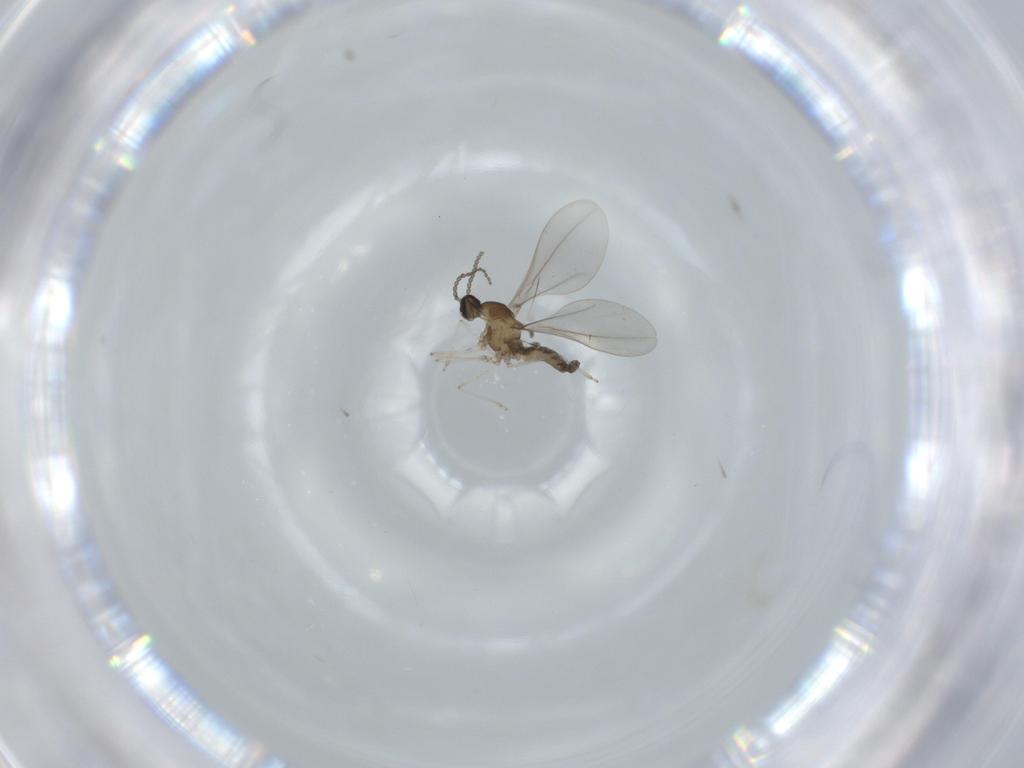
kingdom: Animalia
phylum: Arthropoda
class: Insecta
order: Diptera
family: Cecidomyiidae
